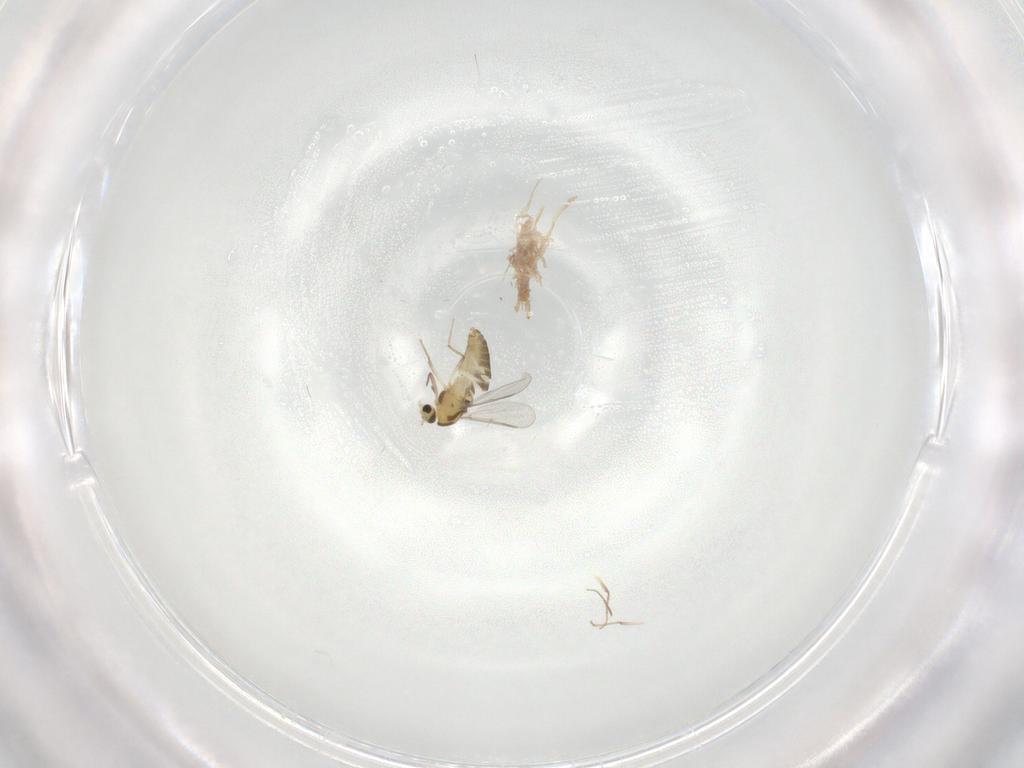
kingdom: Animalia
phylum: Arthropoda
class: Insecta
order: Diptera
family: Chironomidae
